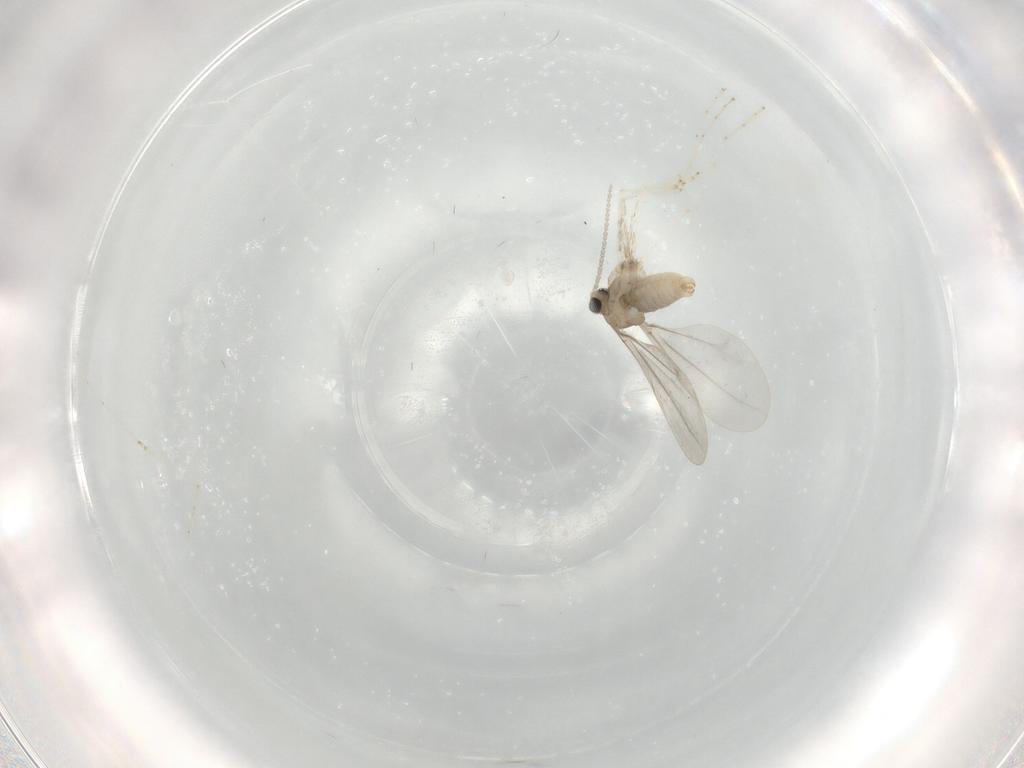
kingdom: Animalia
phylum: Arthropoda
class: Insecta
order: Diptera
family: Cecidomyiidae
